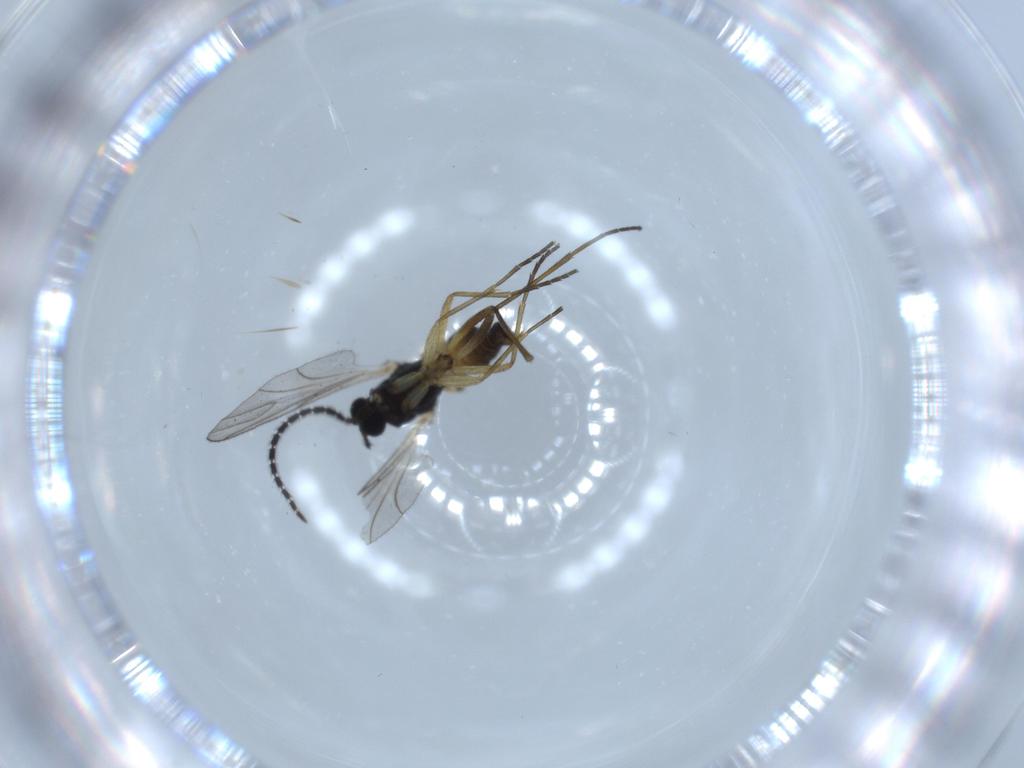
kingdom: Animalia
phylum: Arthropoda
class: Insecta
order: Diptera
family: Sciaridae
